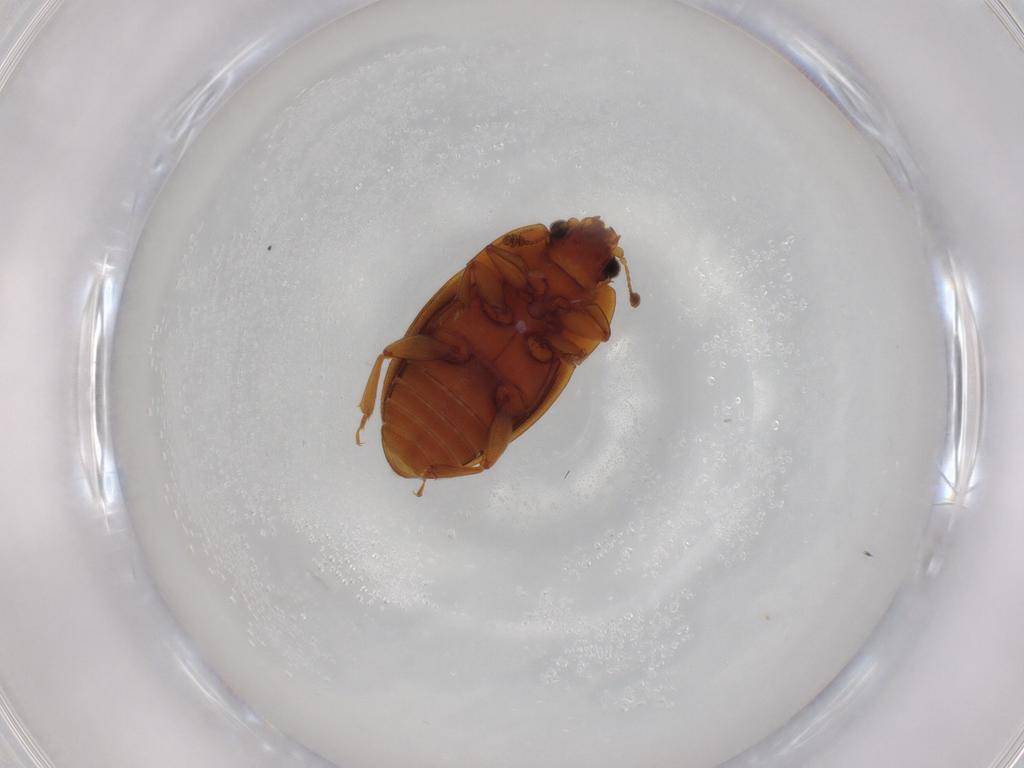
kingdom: Animalia
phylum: Arthropoda
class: Insecta
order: Coleoptera
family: Nitidulidae
